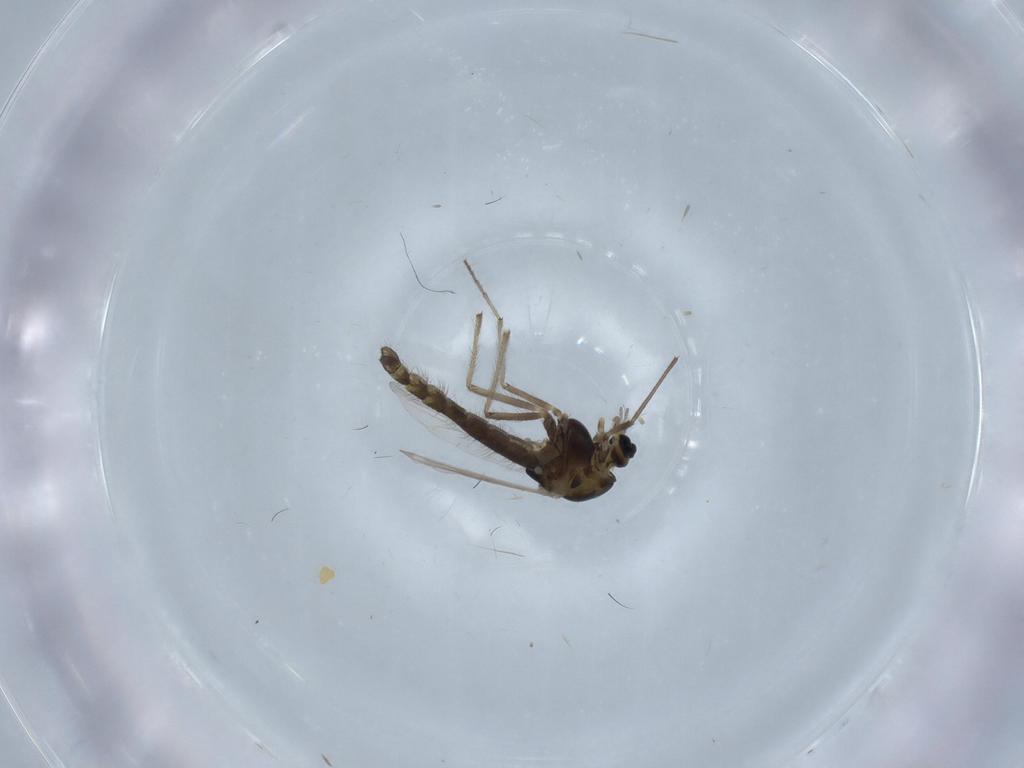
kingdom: Animalia
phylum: Arthropoda
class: Insecta
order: Diptera
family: Chironomidae
